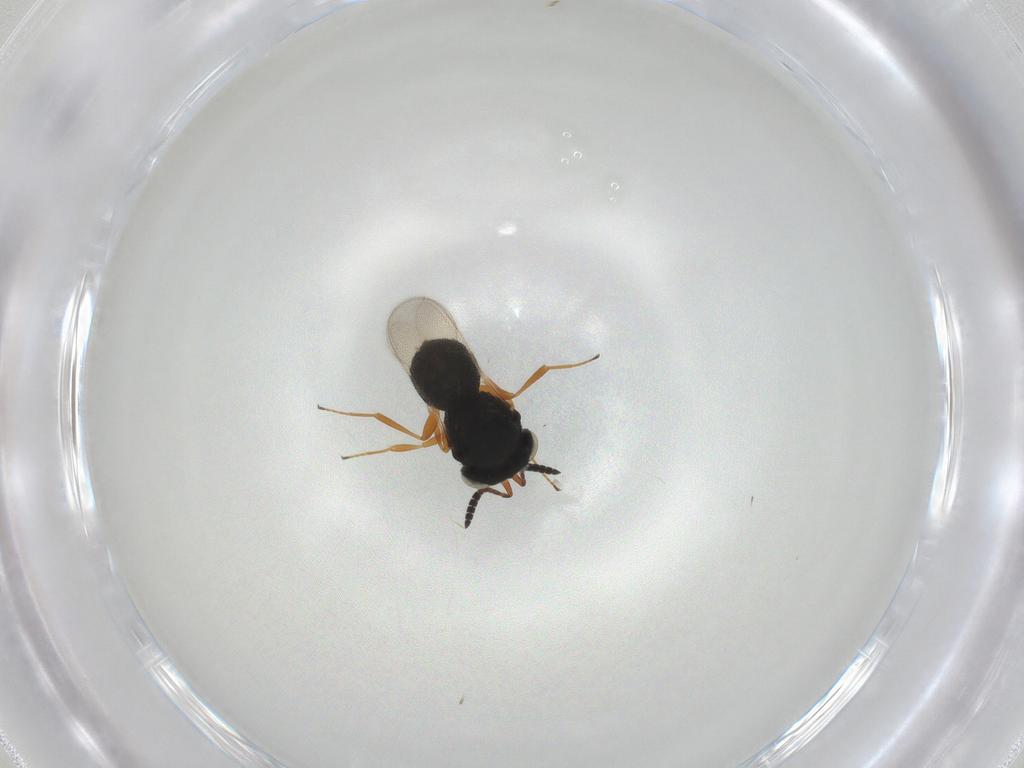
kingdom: Animalia
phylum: Arthropoda
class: Insecta
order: Hymenoptera
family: Scelionidae
